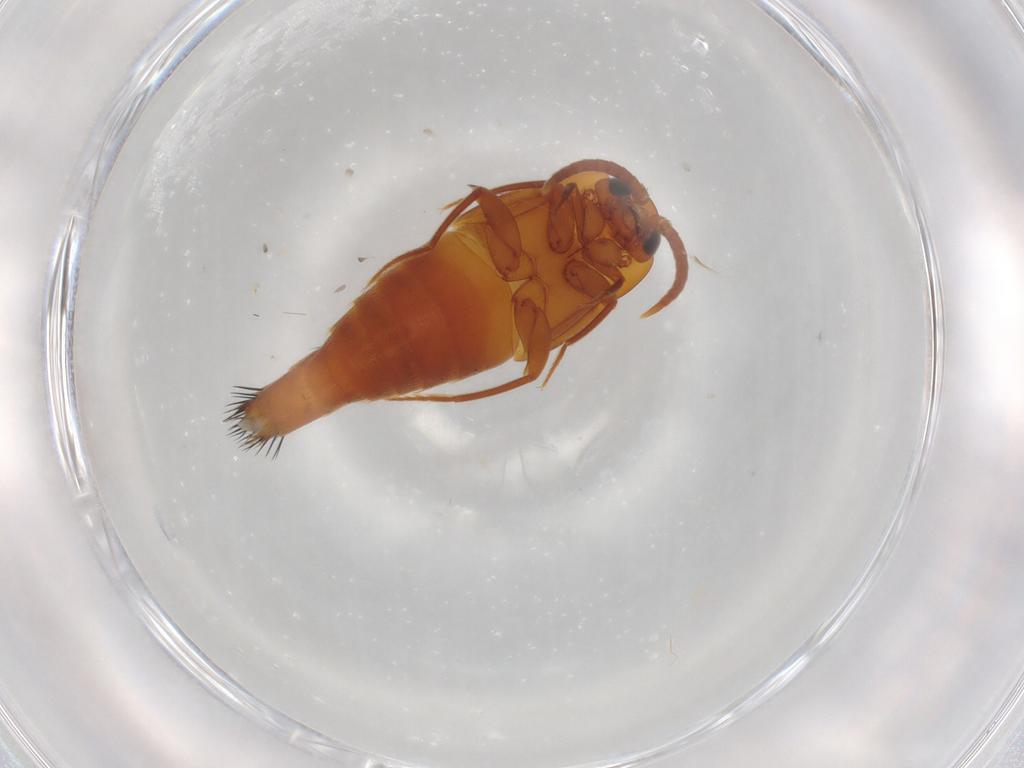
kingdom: Animalia
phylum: Arthropoda
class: Insecta
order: Coleoptera
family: Staphylinidae
